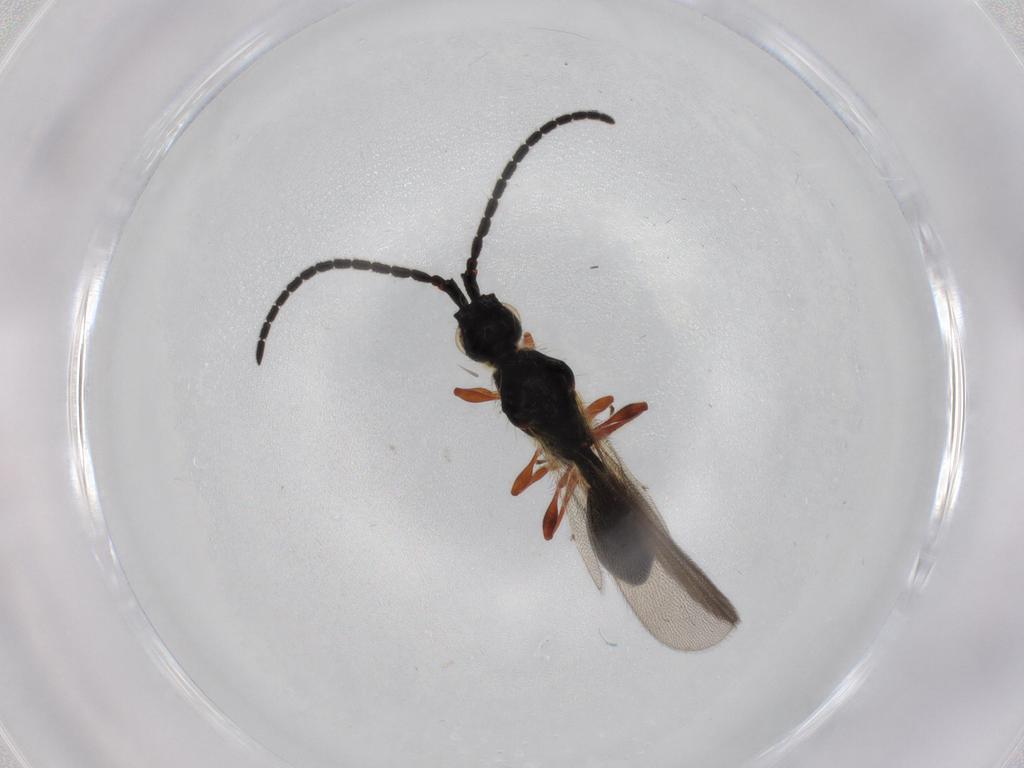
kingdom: Animalia
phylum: Arthropoda
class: Insecta
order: Hymenoptera
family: Diapriidae
